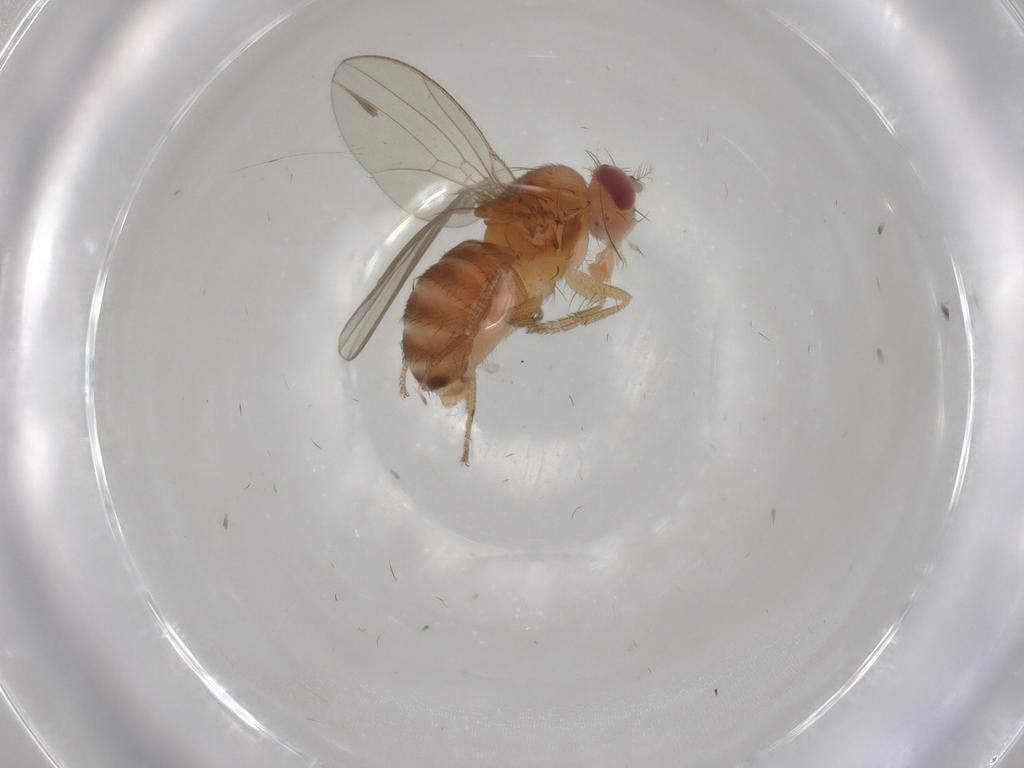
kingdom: Animalia
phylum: Arthropoda
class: Insecta
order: Diptera
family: Drosophilidae
